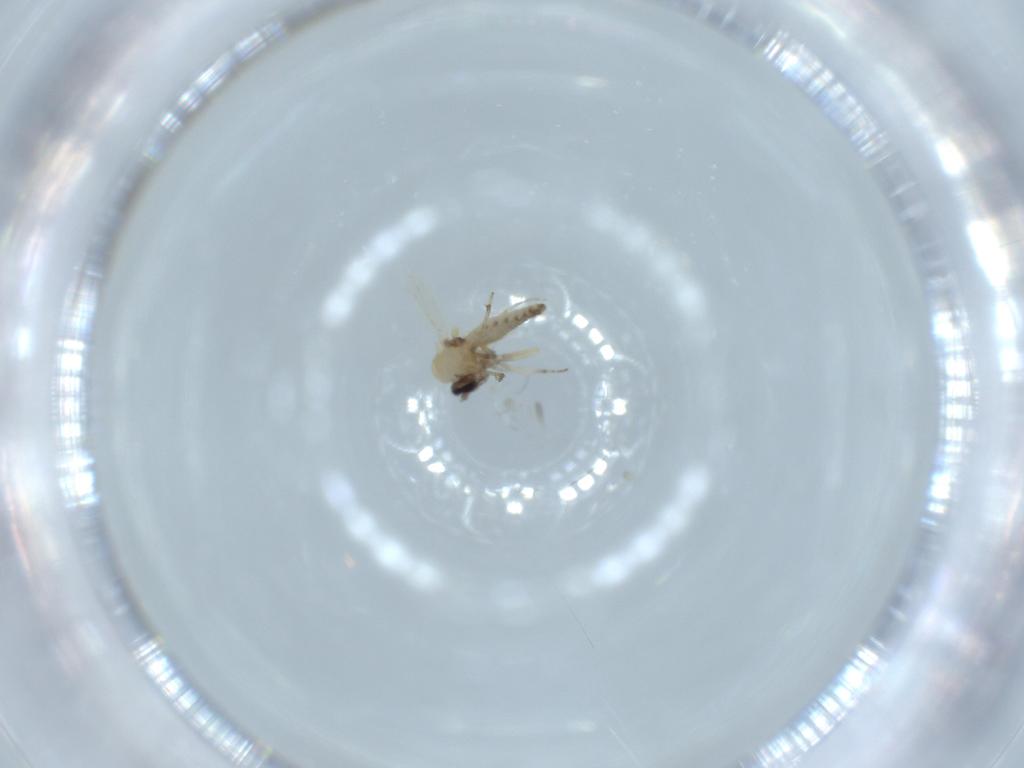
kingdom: Animalia
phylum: Arthropoda
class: Insecta
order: Diptera
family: Ceratopogonidae
